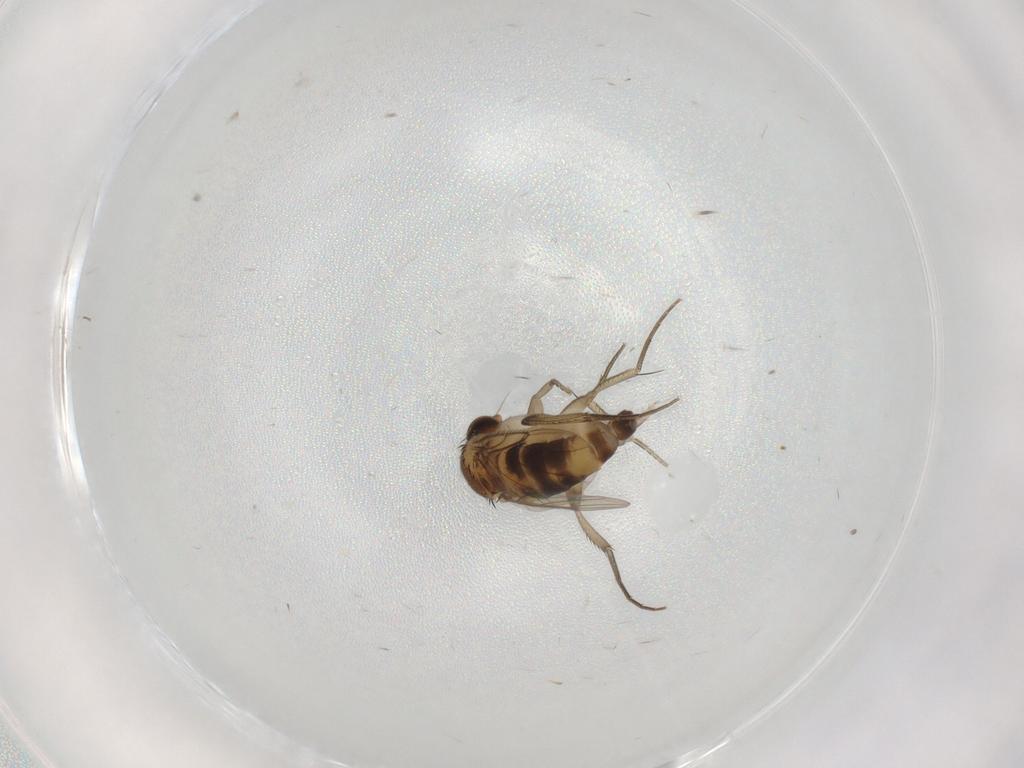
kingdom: Animalia
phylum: Arthropoda
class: Insecta
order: Diptera
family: Phoridae
